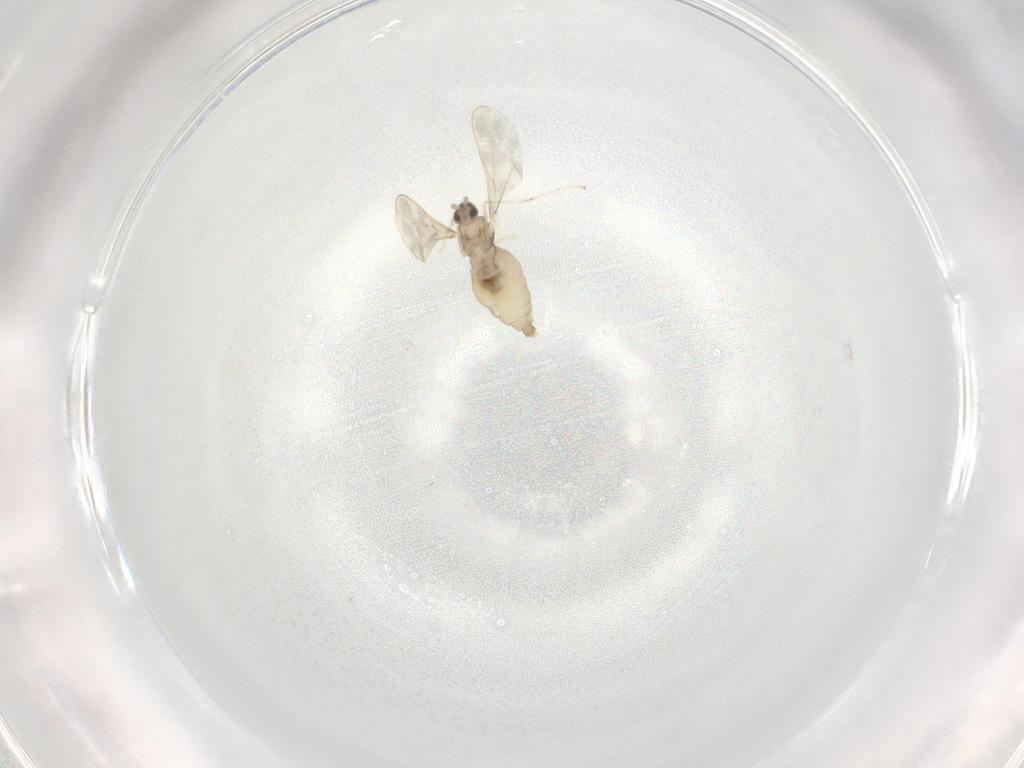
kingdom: Animalia
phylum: Arthropoda
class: Insecta
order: Diptera
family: Cecidomyiidae
